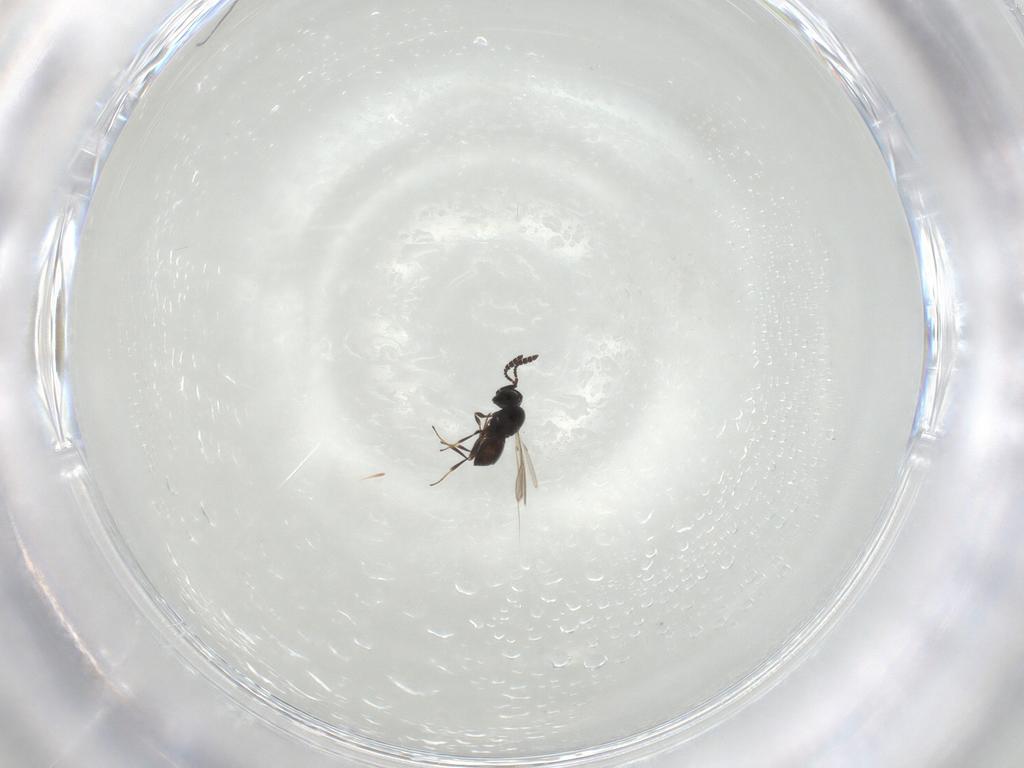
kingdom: Animalia
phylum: Arthropoda
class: Insecta
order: Hymenoptera
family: Scelionidae
